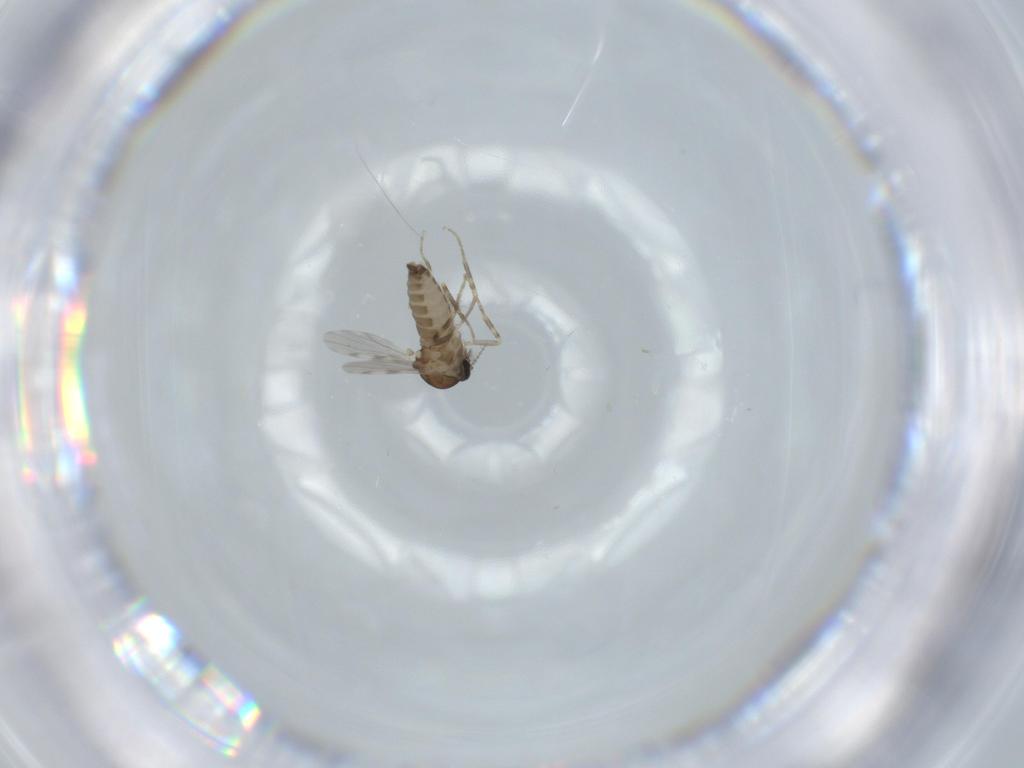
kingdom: Animalia
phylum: Arthropoda
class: Insecta
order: Diptera
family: Ceratopogonidae
